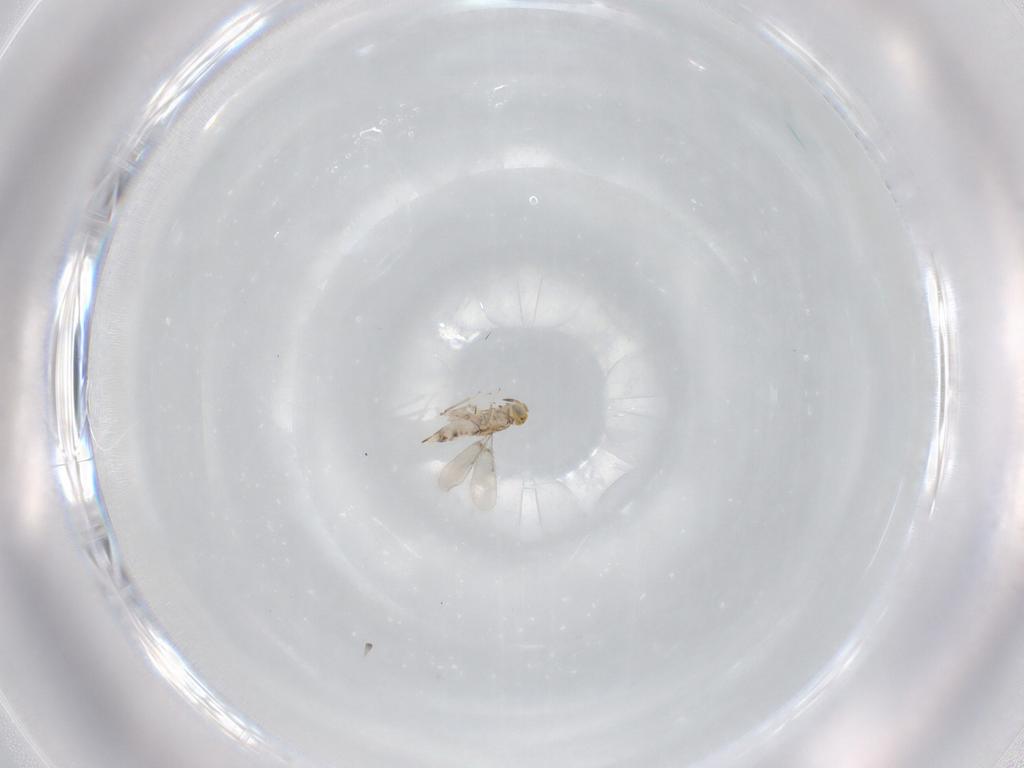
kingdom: Animalia
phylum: Arthropoda
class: Insecta
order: Hymenoptera
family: Aphelinidae
